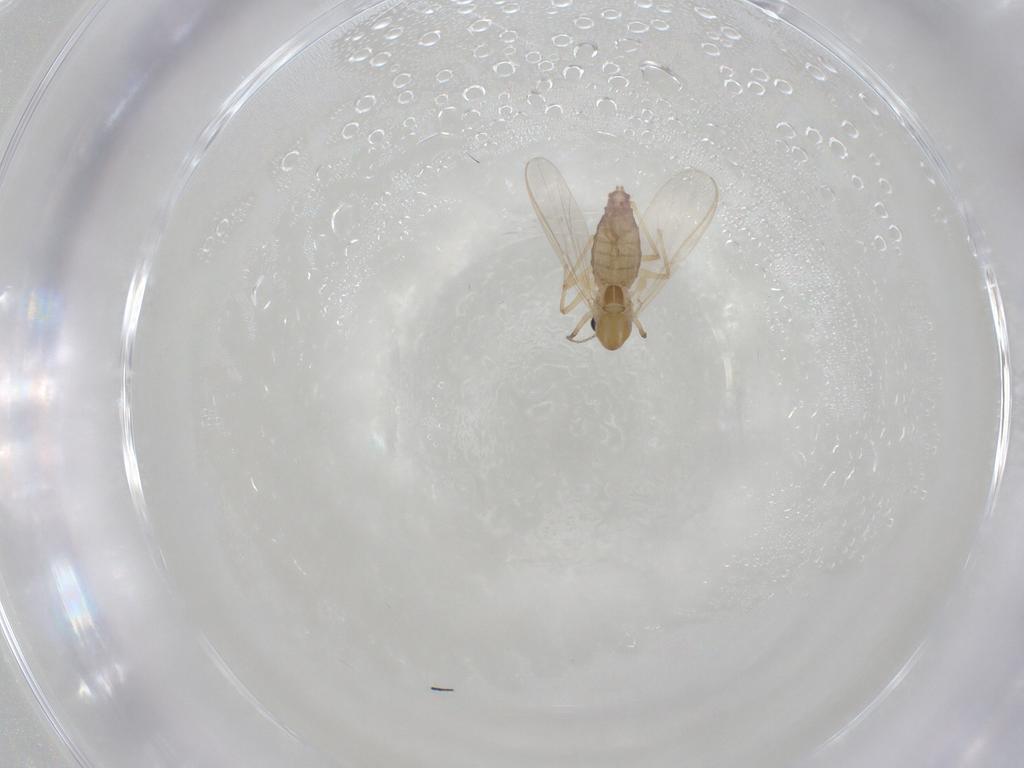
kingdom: Animalia
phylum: Arthropoda
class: Insecta
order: Diptera
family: Chironomidae
